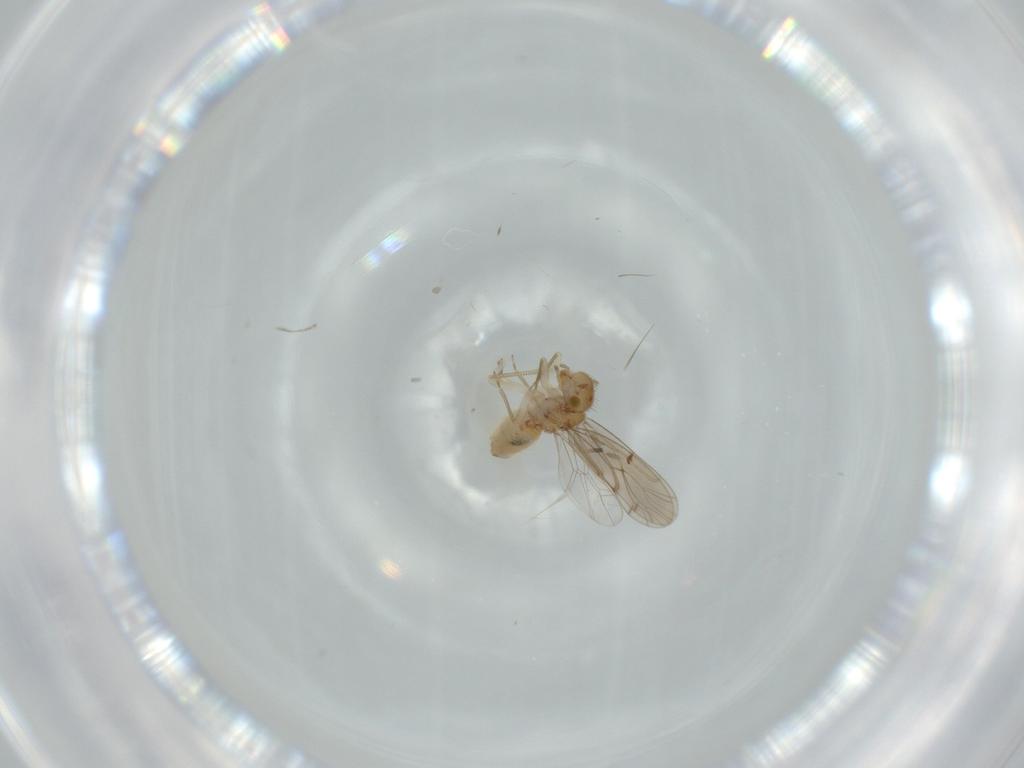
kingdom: Animalia
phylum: Arthropoda
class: Insecta
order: Psocodea
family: Ectopsocidae
